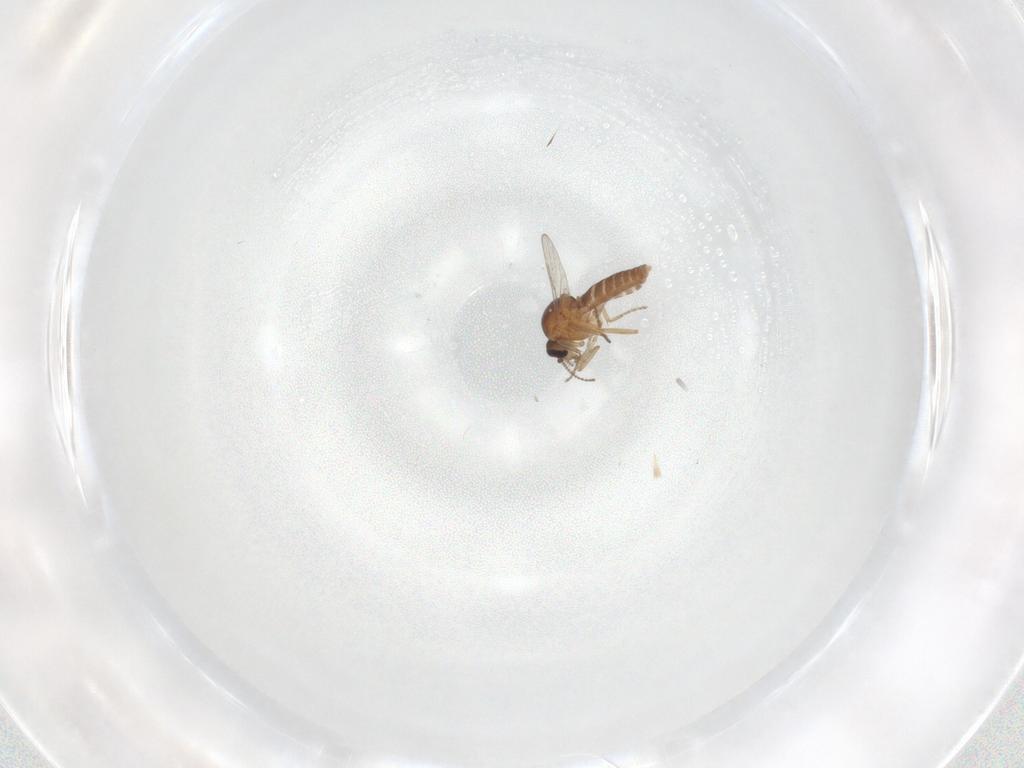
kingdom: Animalia
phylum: Arthropoda
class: Insecta
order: Diptera
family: Ceratopogonidae
